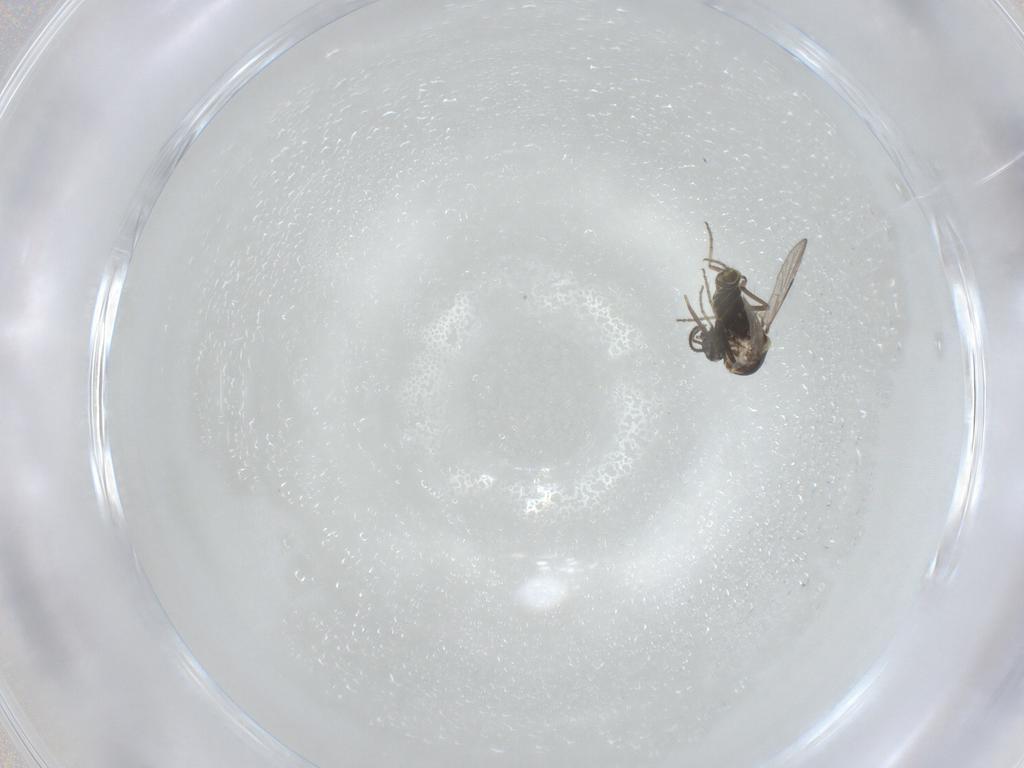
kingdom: Animalia
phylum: Arthropoda
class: Insecta
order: Diptera
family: Ceratopogonidae
